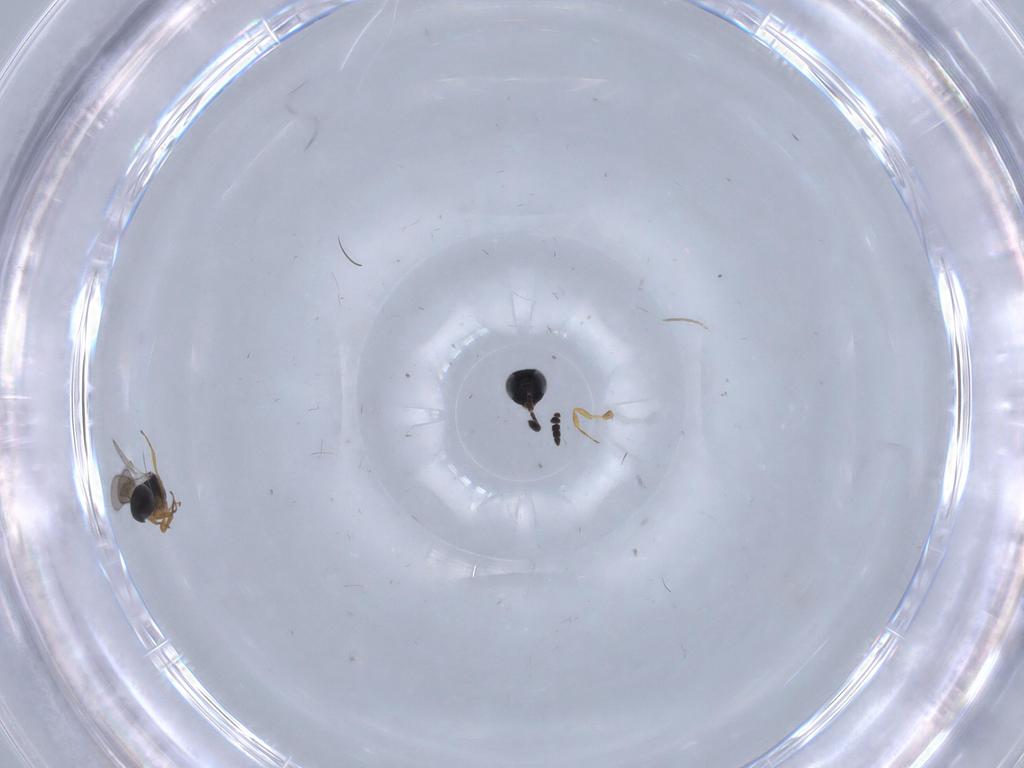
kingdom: Animalia
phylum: Arthropoda
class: Insecta
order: Hymenoptera
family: Scelionidae
